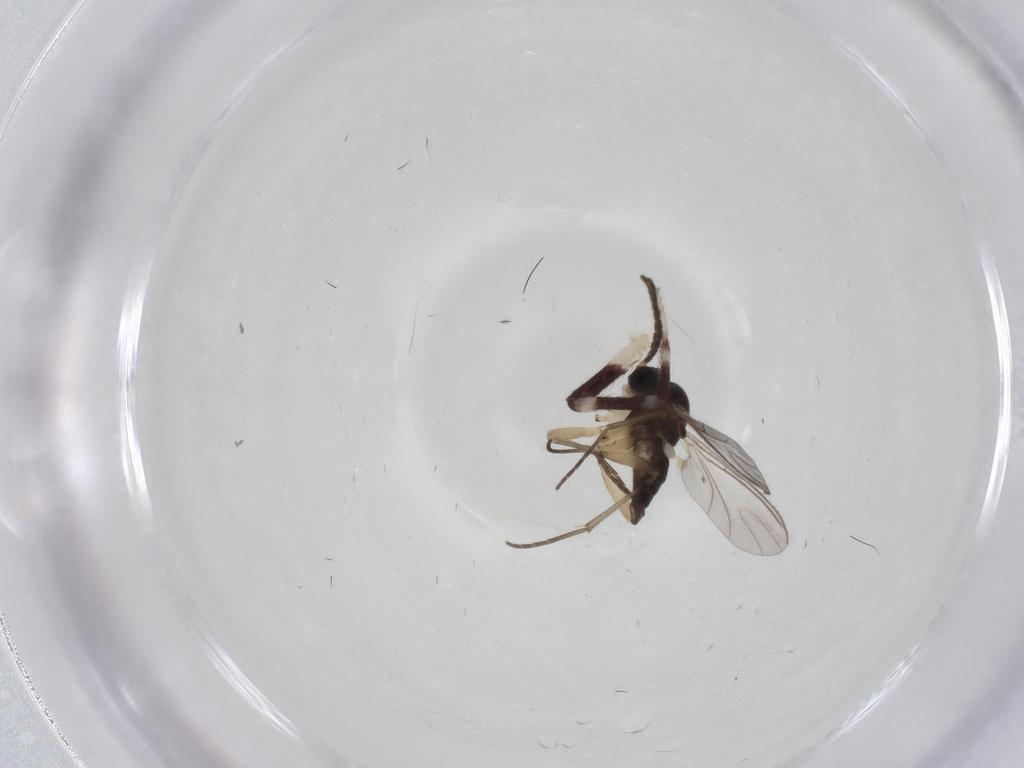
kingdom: Animalia
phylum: Arthropoda
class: Insecta
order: Diptera
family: Sciaridae
